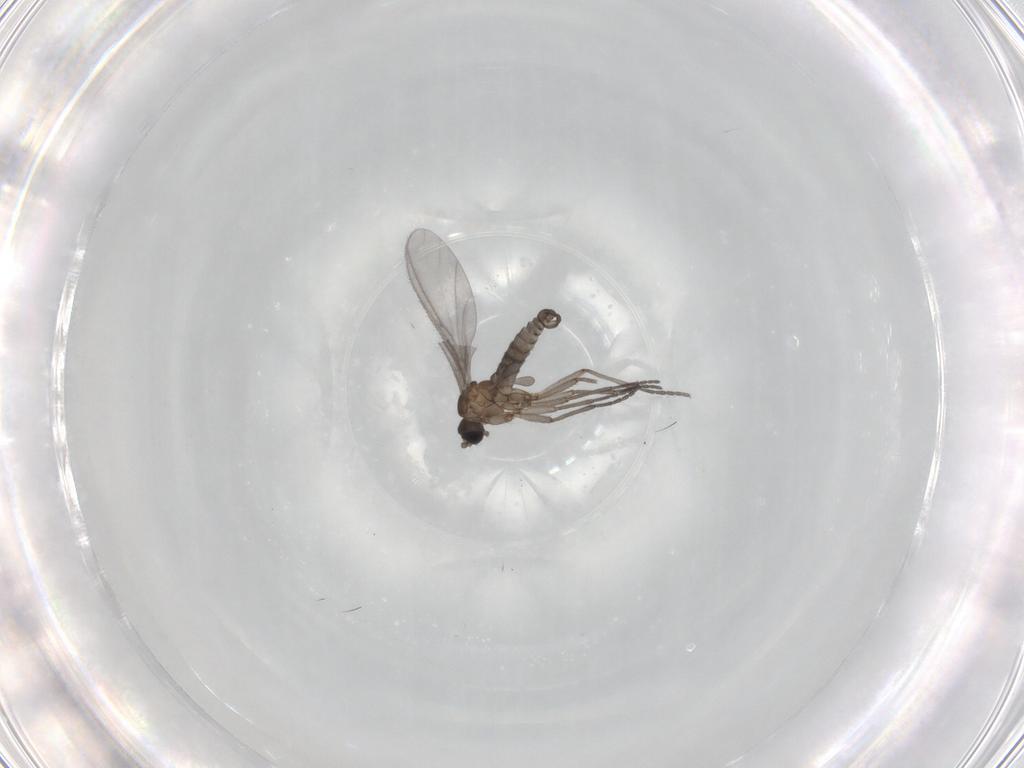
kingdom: Animalia
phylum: Arthropoda
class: Insecta
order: Diptera
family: Sciaridae
